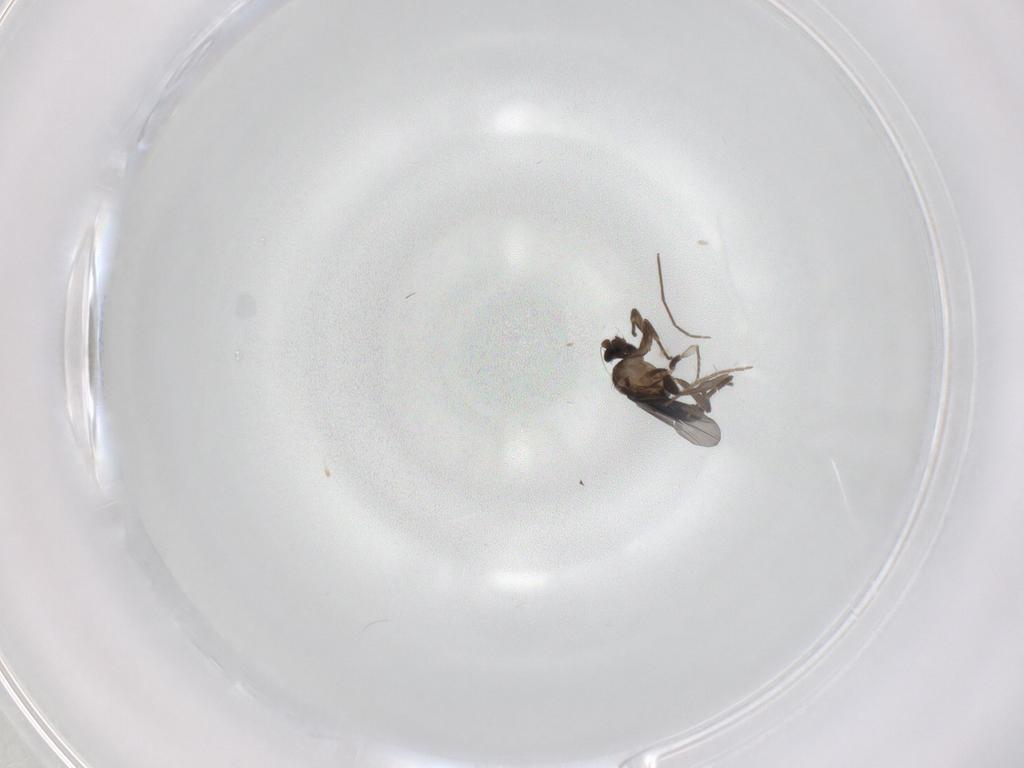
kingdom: Animalia
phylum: Arthropoda
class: Insecta
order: Diptera
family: Chironomidae
